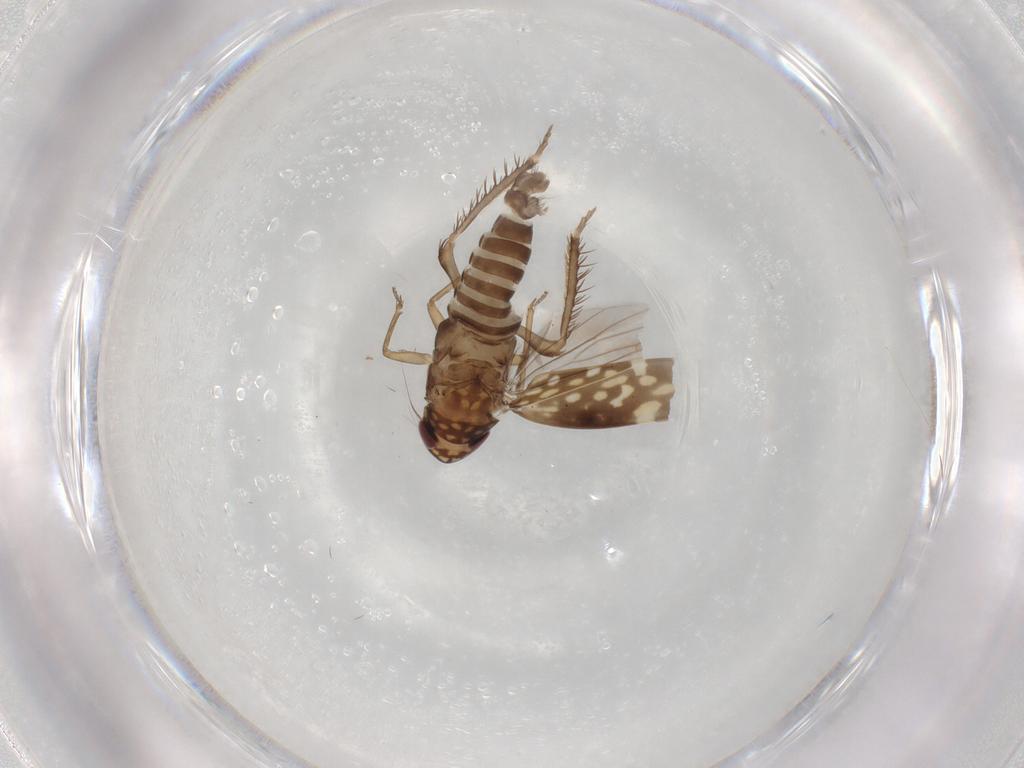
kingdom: Animalia
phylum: Arthropoda
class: Insecta
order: Hemiptera
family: Cicadellidae
